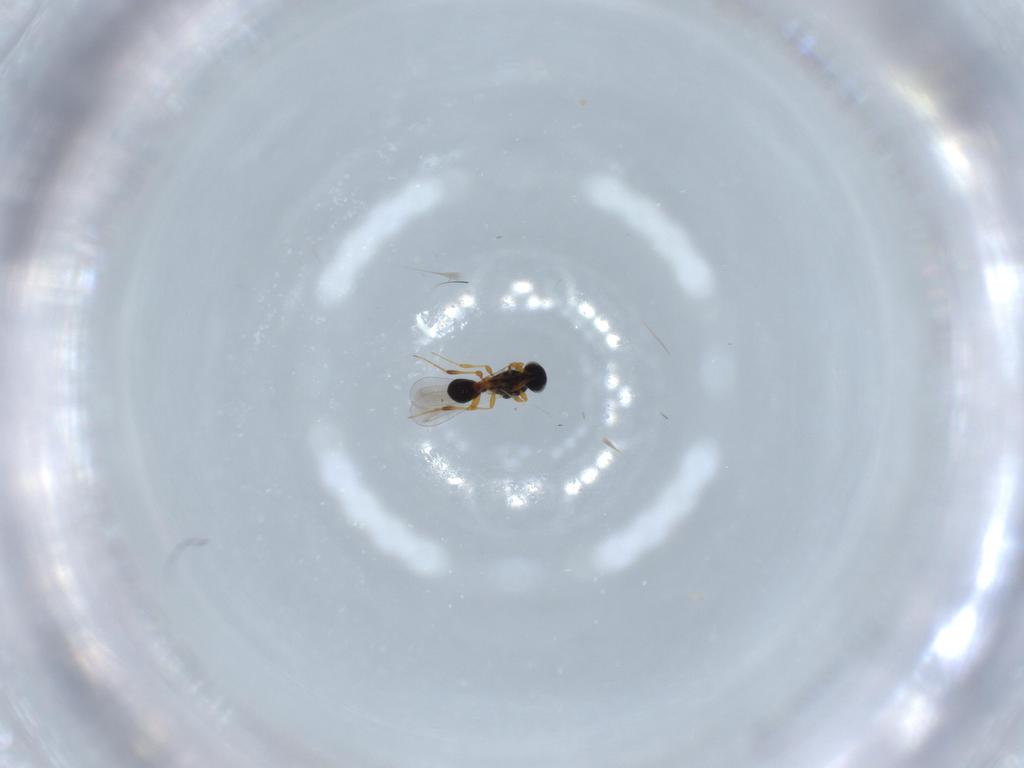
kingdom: Animalia
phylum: Arthropoda
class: Insecta
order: Hymenoptera
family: Platygastridae
